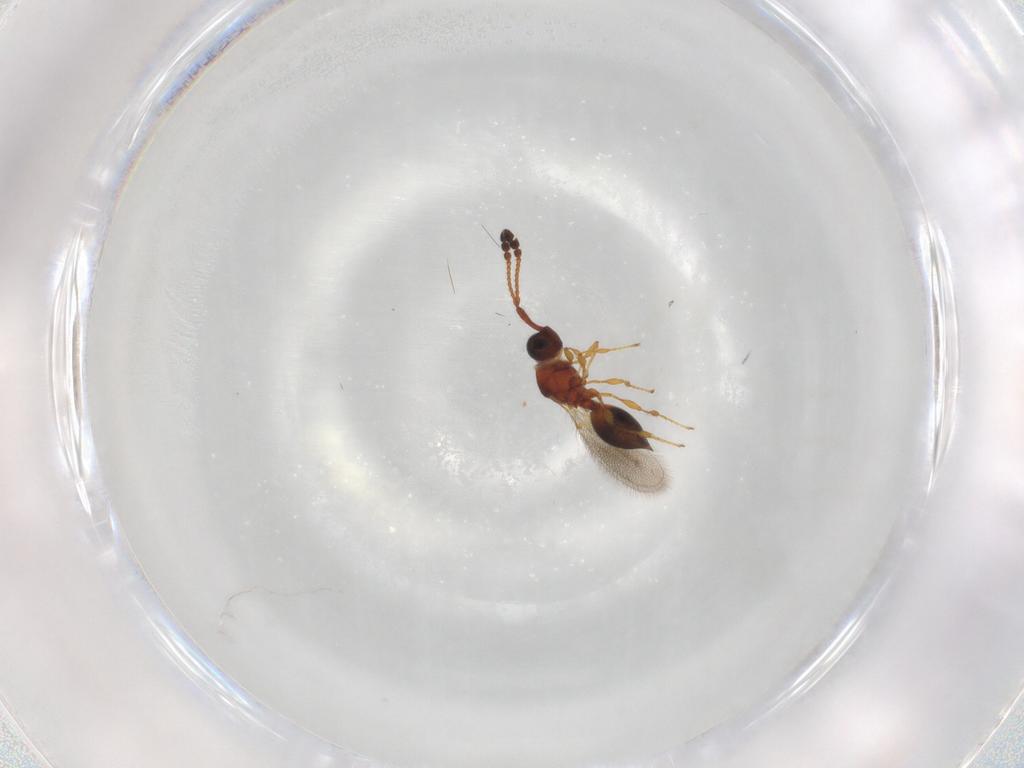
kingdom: Animalia
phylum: Arthropoda
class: Insecta
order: Hymenoptera
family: Diapriidae
